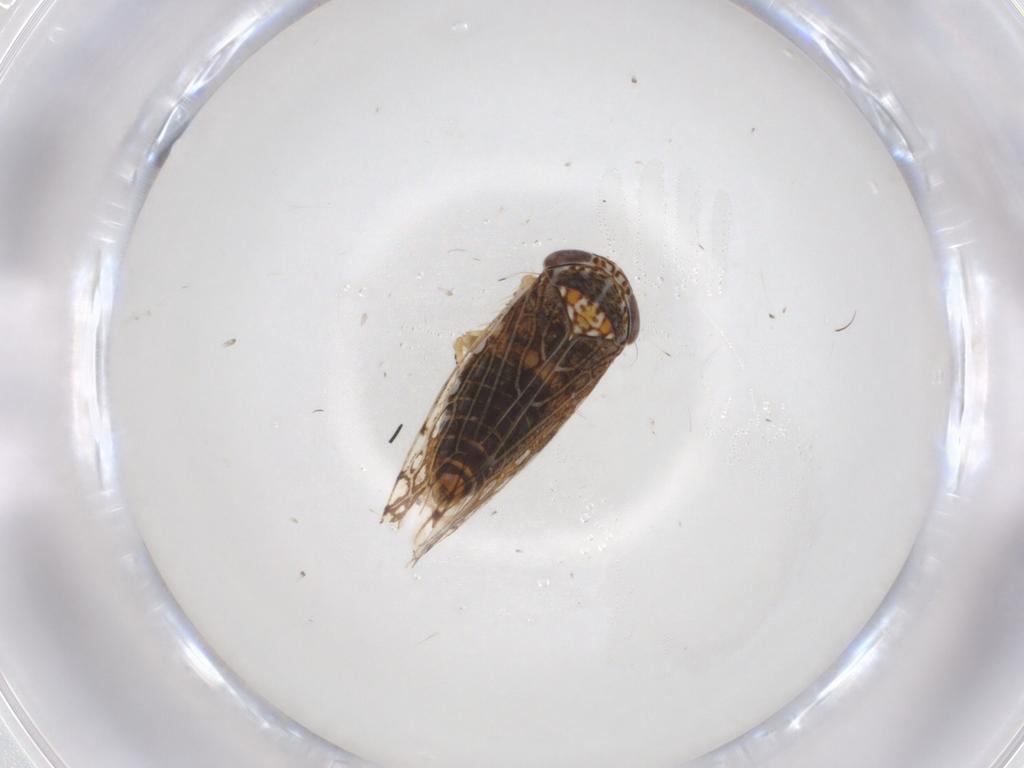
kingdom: Animalia
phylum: Arthropoda
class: Insecta
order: Hemiptera
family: Cicadellidae
